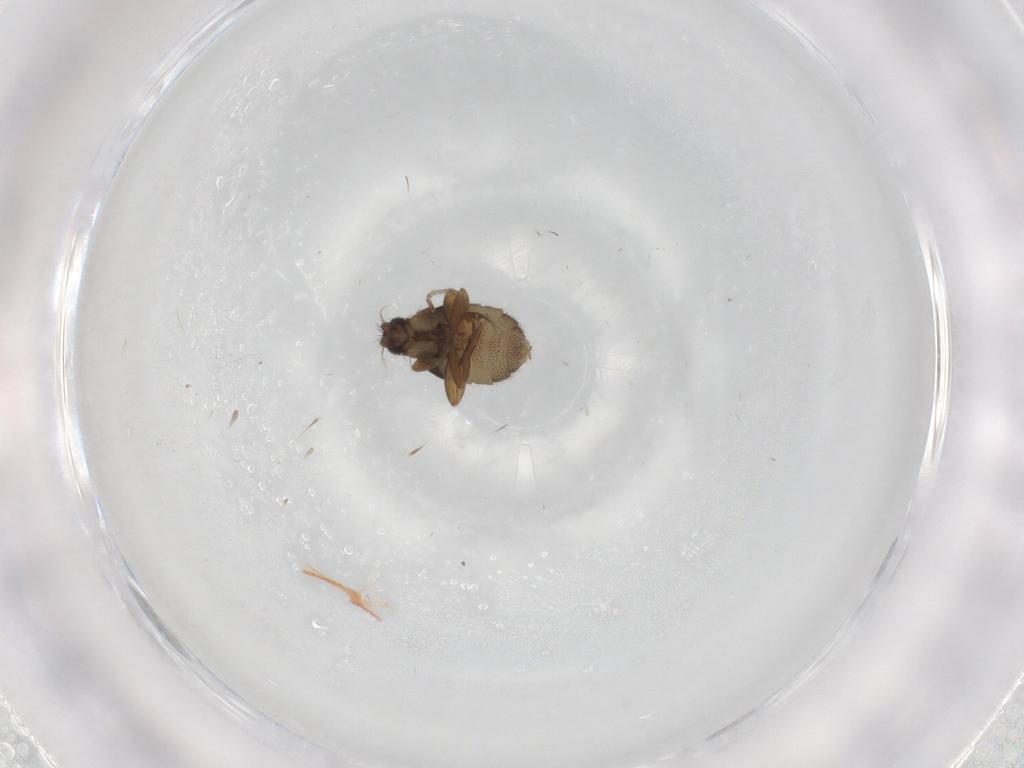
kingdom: Animalia
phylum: Arthropoda
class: Insecta
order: Diptera
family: Phoridae
